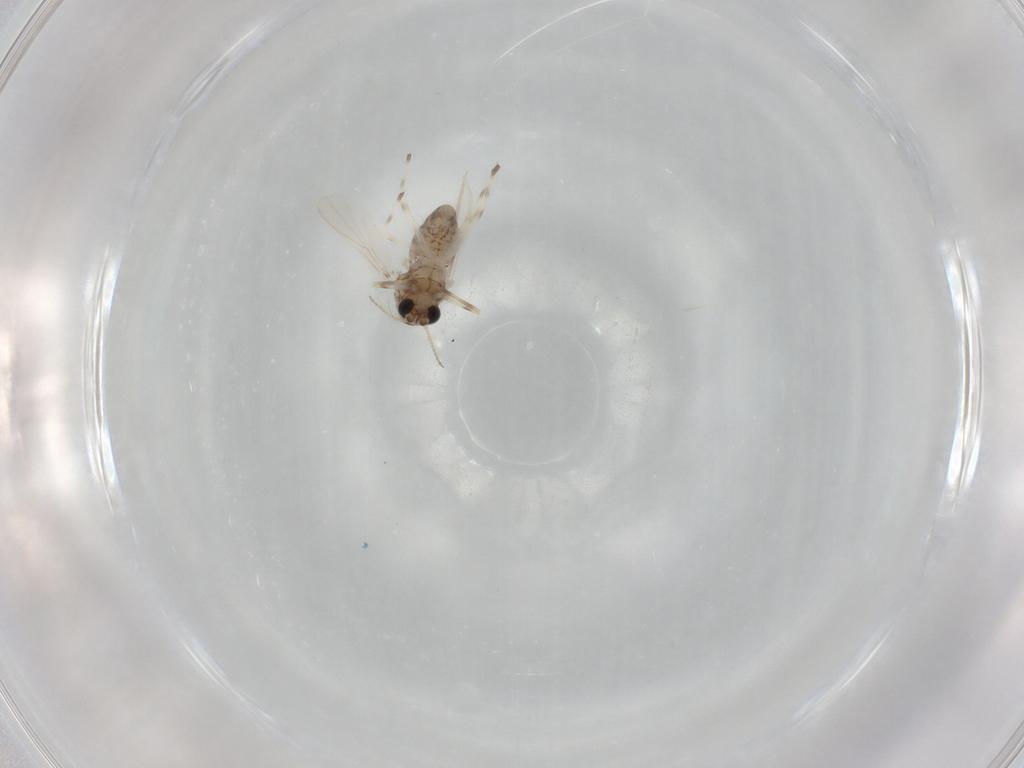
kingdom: Animalia
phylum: Arthropoda
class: Insecta
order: Diptera
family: Chironomidae
